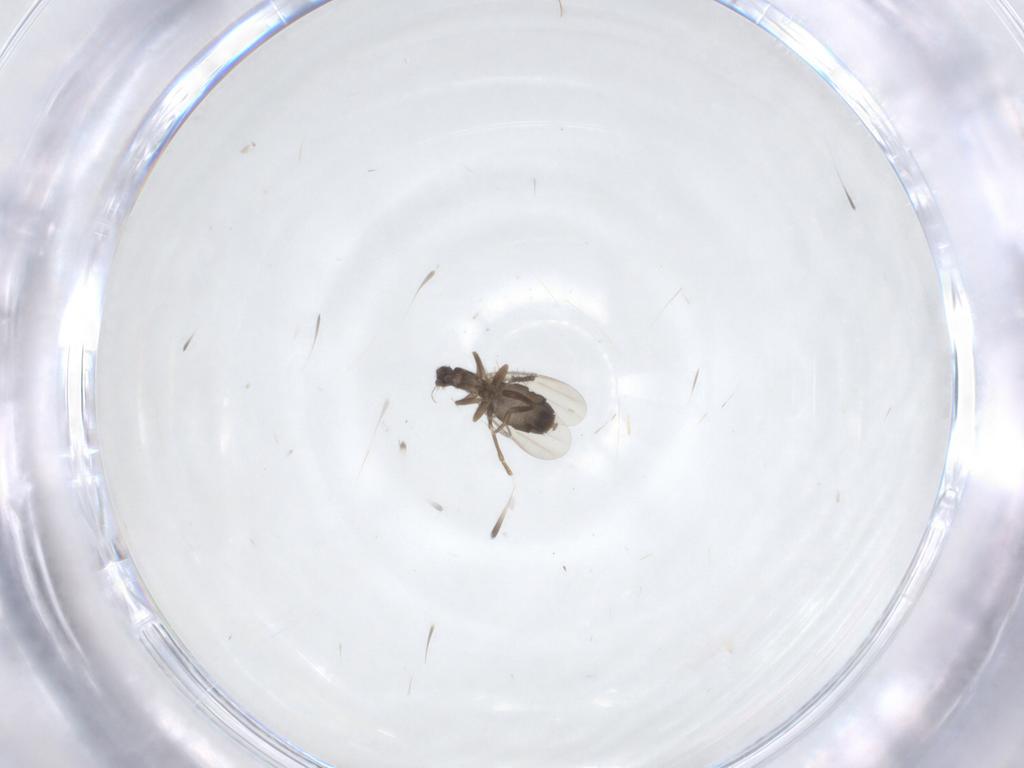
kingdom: Animalia
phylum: Arthropoda
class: Insecta
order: Diptera
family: Phoridae
